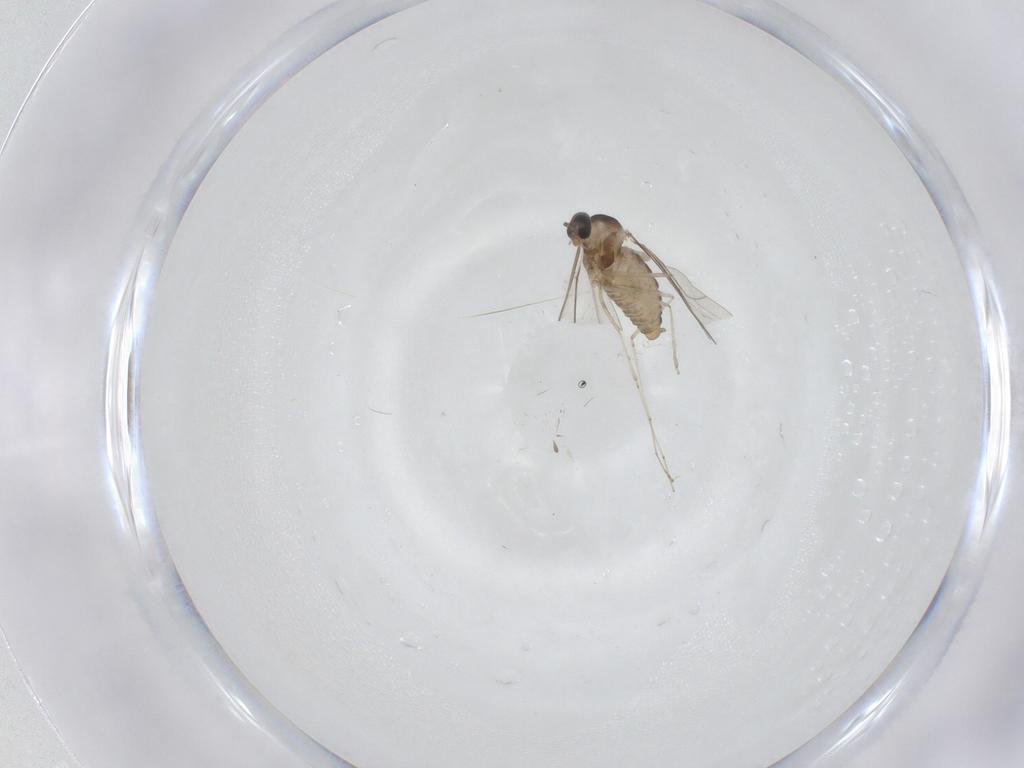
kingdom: Animalia
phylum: Arthropoda
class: Insecta
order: Diptera
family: Cecidomyiidae
